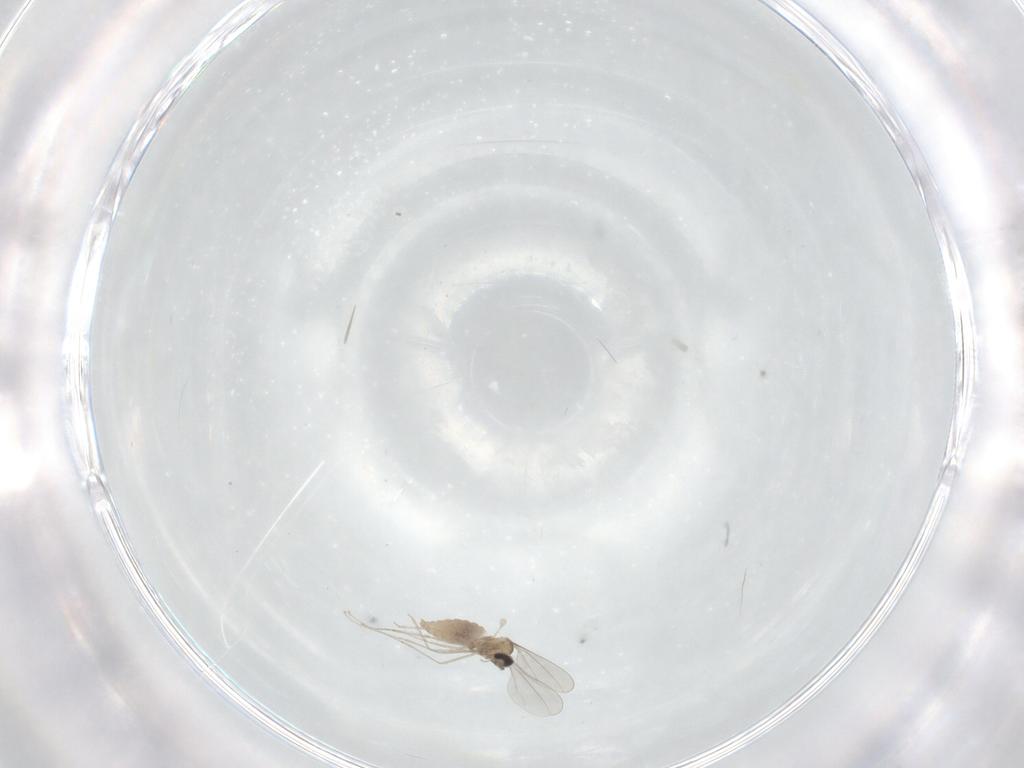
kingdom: Animalia
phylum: Arthropoda
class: Insecta
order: Diptera
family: Cecidomyiidae
